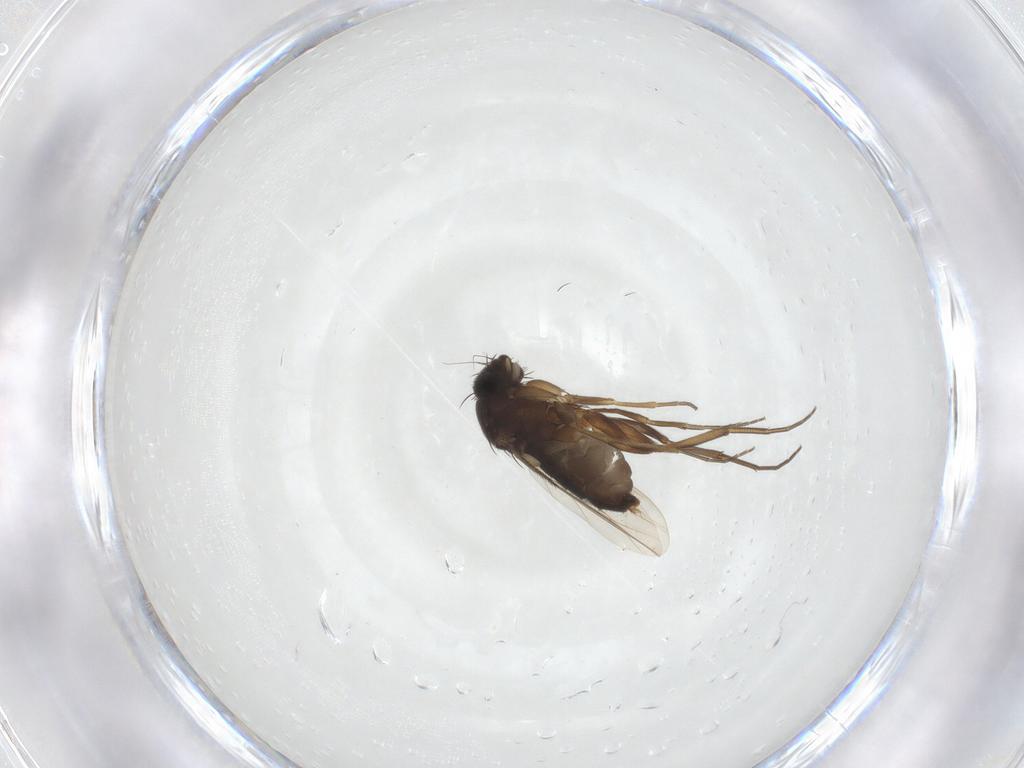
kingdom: Animalia
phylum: Arthropoda
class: Insecta
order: Diptera
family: Phoridae
